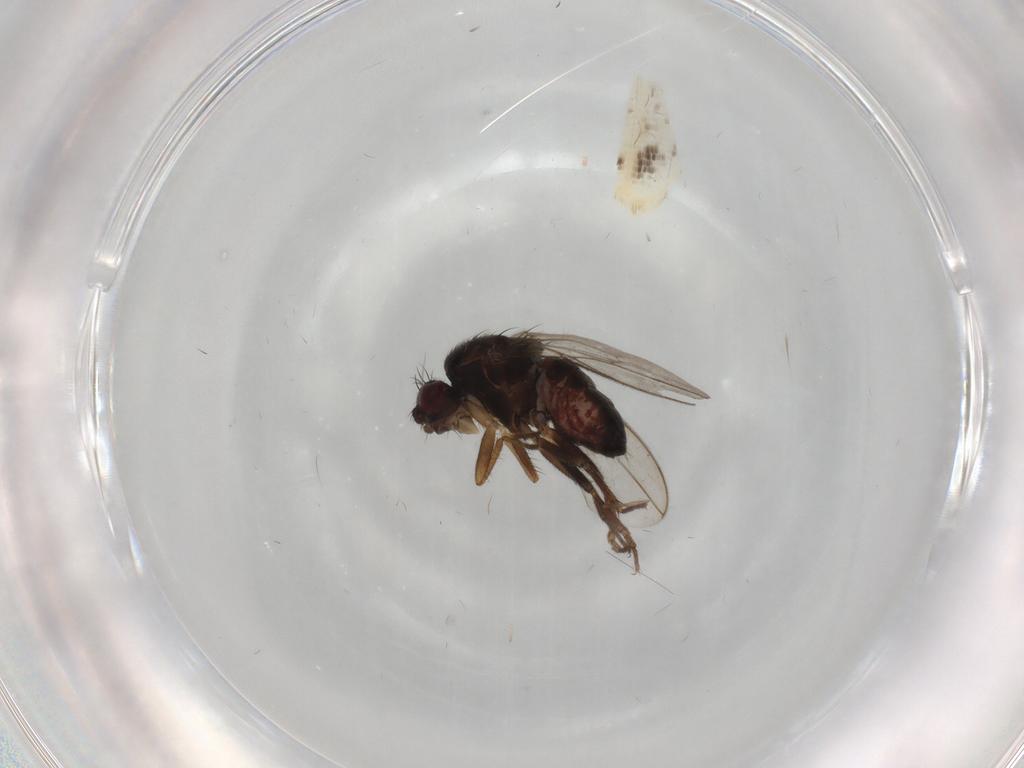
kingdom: Animalia
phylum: Arthropoda
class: Insecta
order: Diptera
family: Sphaeroceridae
